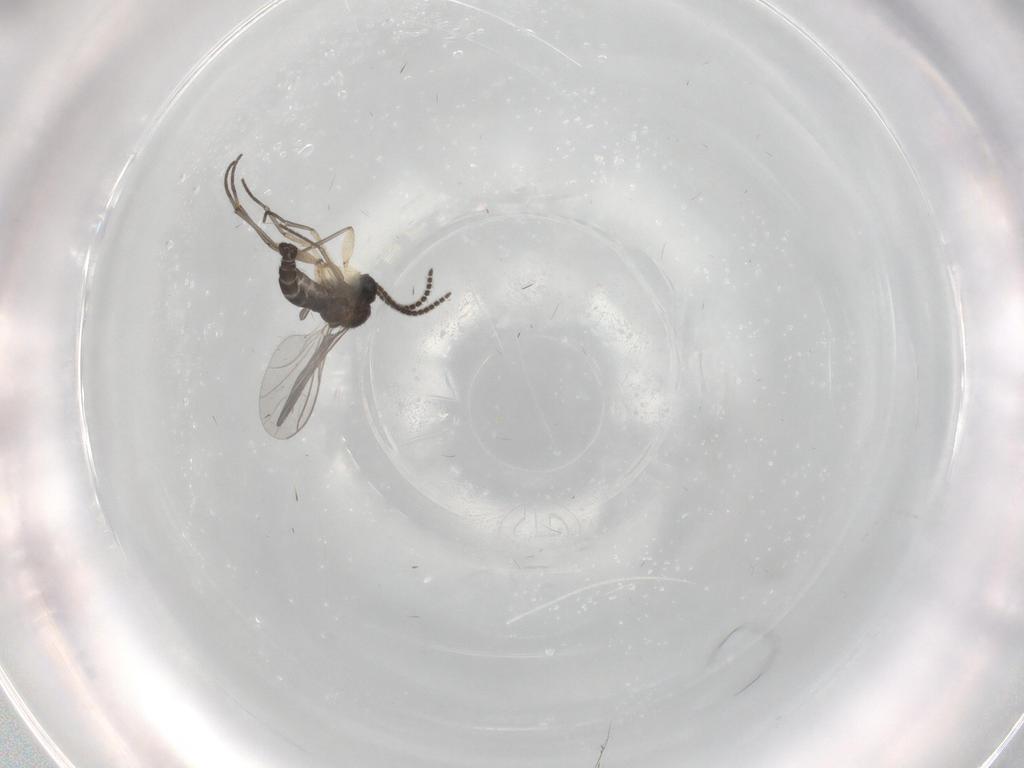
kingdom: Animalia
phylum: Arthropoda
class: Insecta
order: Diptera
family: Sciaridae
